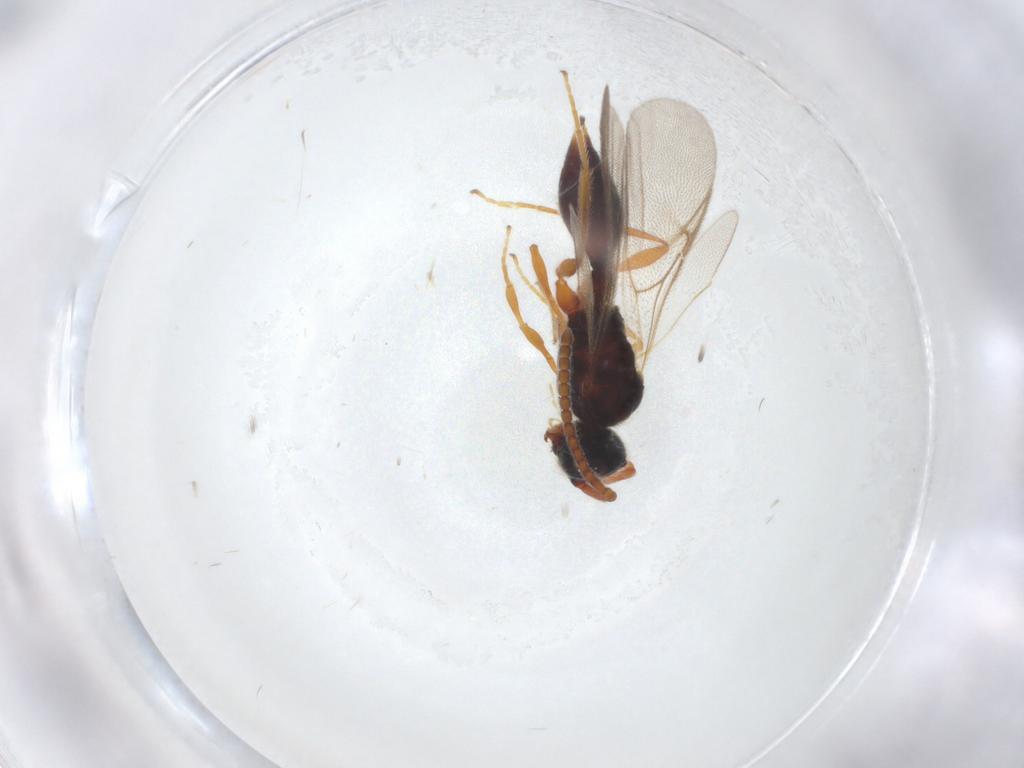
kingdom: Animalia
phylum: Arthropoda
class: Insecta
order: Hymenoptera
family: Diapriidae
